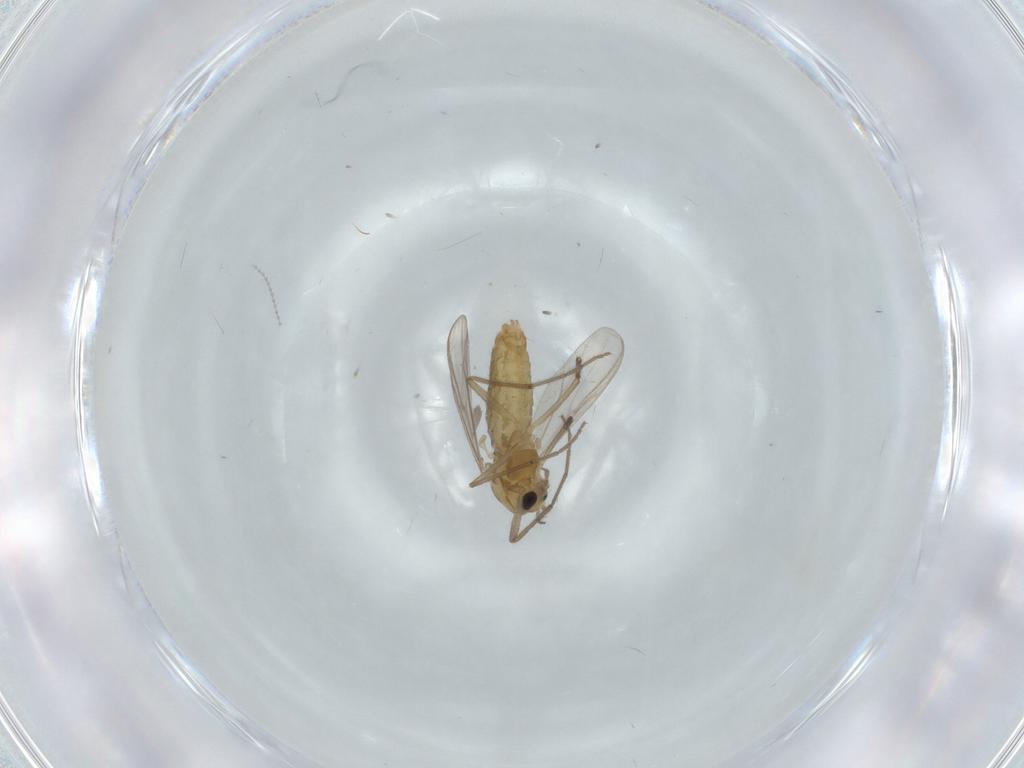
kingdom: Animalia
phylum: Arthropoda
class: Insecta
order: Diptera
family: Chironomidae
